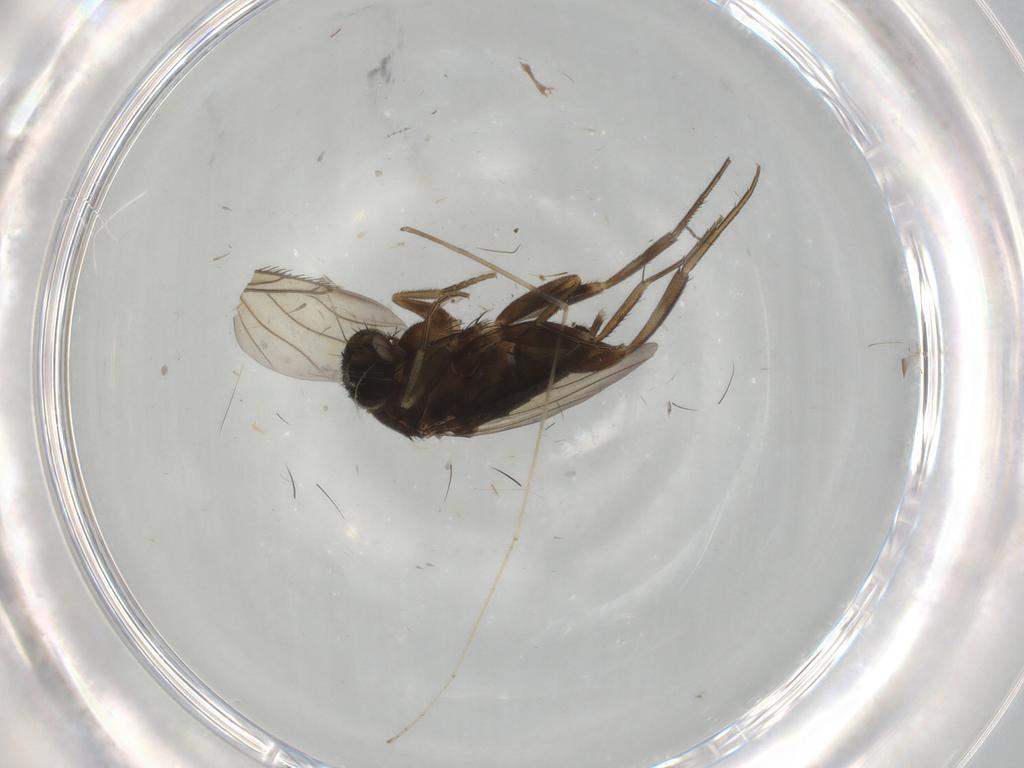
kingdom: Animalia
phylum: Arthropoda
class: Insecta
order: Diptera
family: Phoridae
